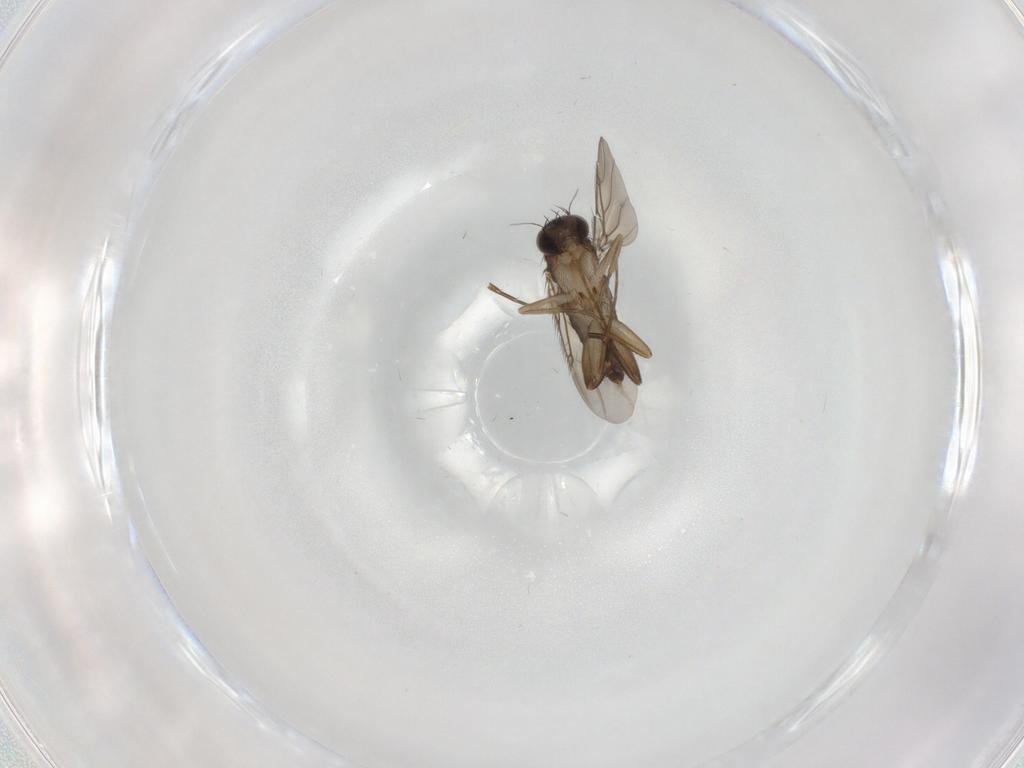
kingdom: Animalia
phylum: Arthropoda
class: Insecta
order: Diptera
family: Phoridae
